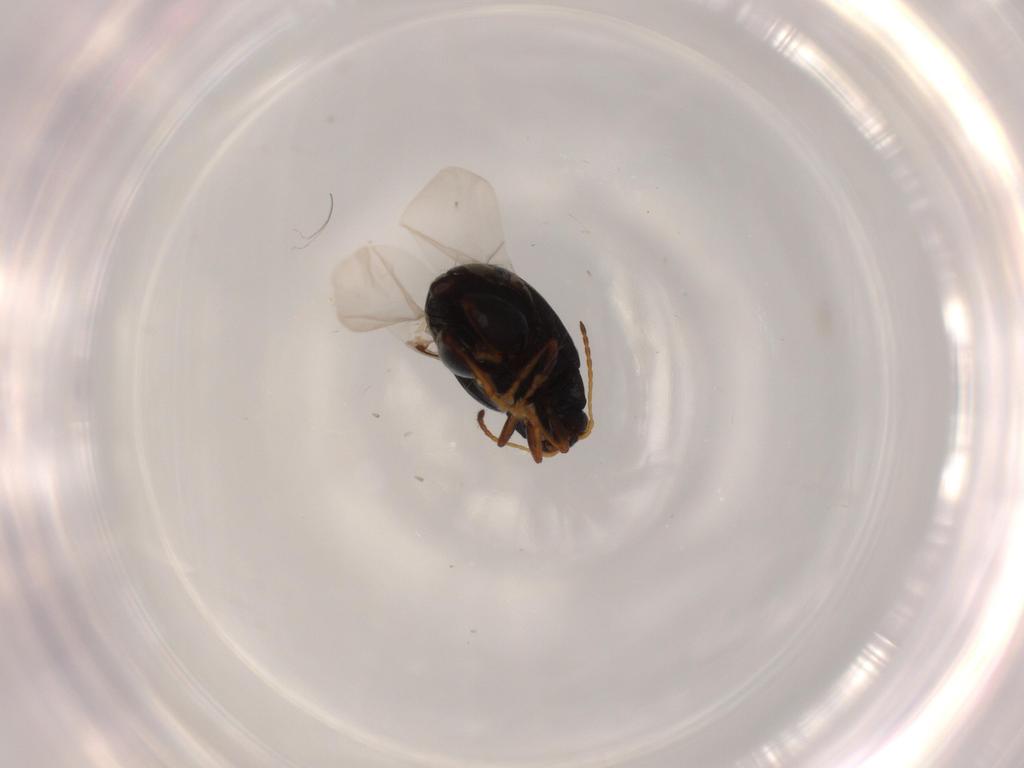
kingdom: Animalia
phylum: Arthropoda
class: Insecta
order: Coleoptera
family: Chrysomelidae
